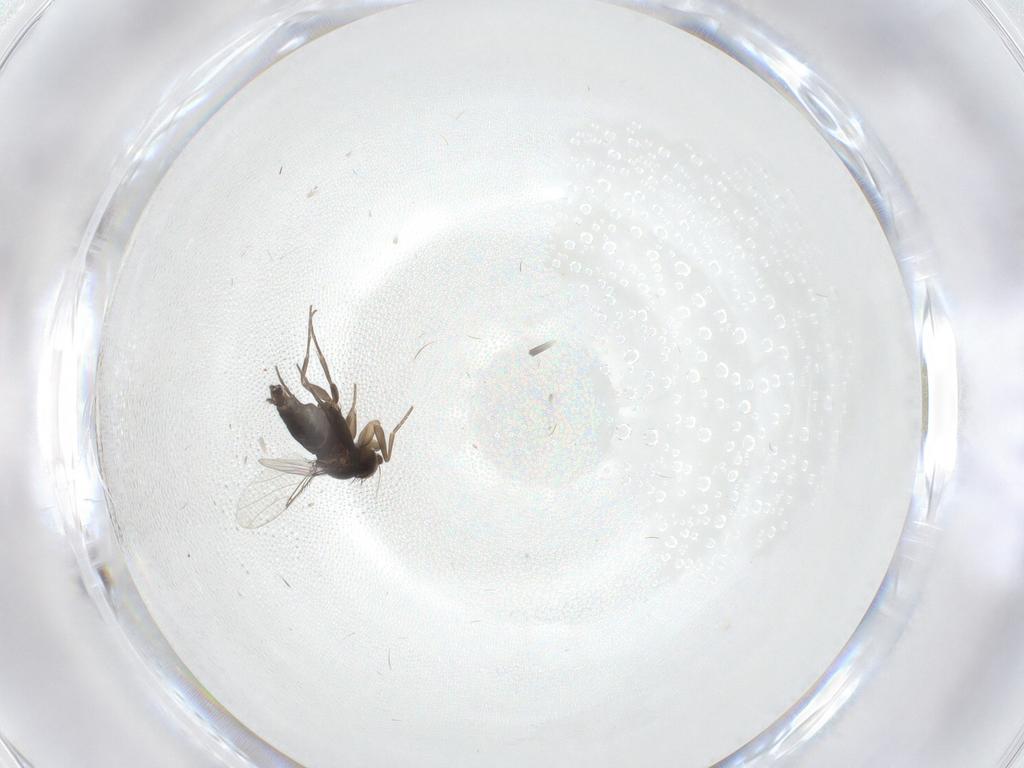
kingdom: Animalia
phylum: Arthropoda
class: Insecta
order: Diptera
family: Phoridae
